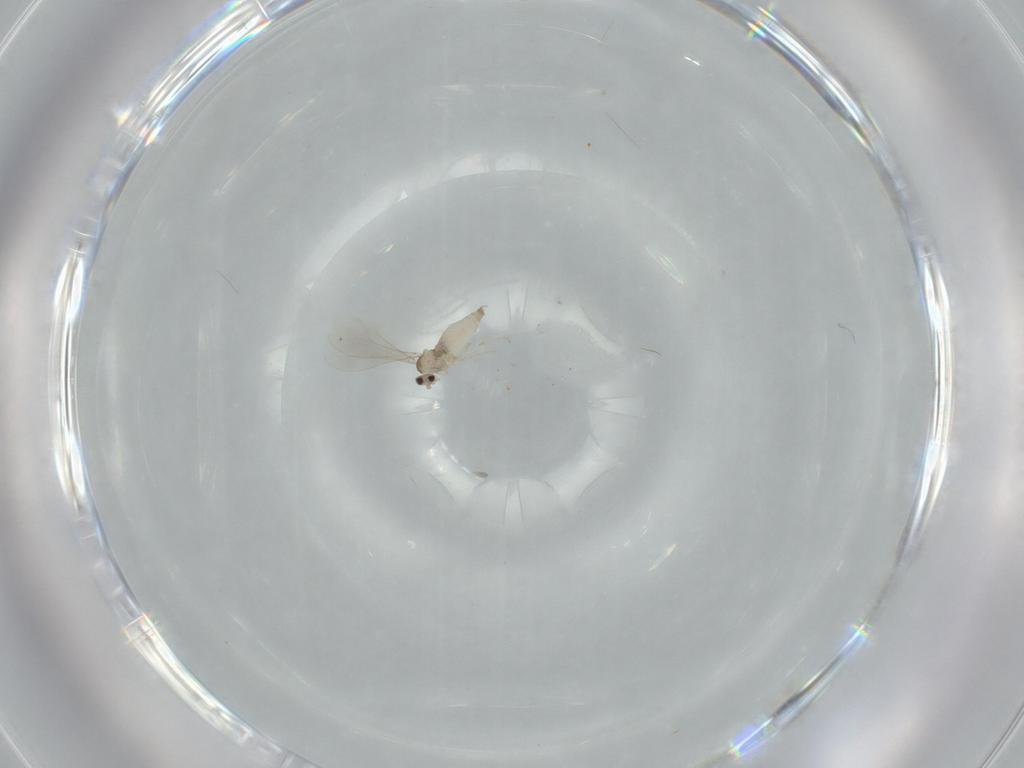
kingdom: Animalia
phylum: Arthropoda
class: Insecta
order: Diptera
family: Cecidomyiidae
